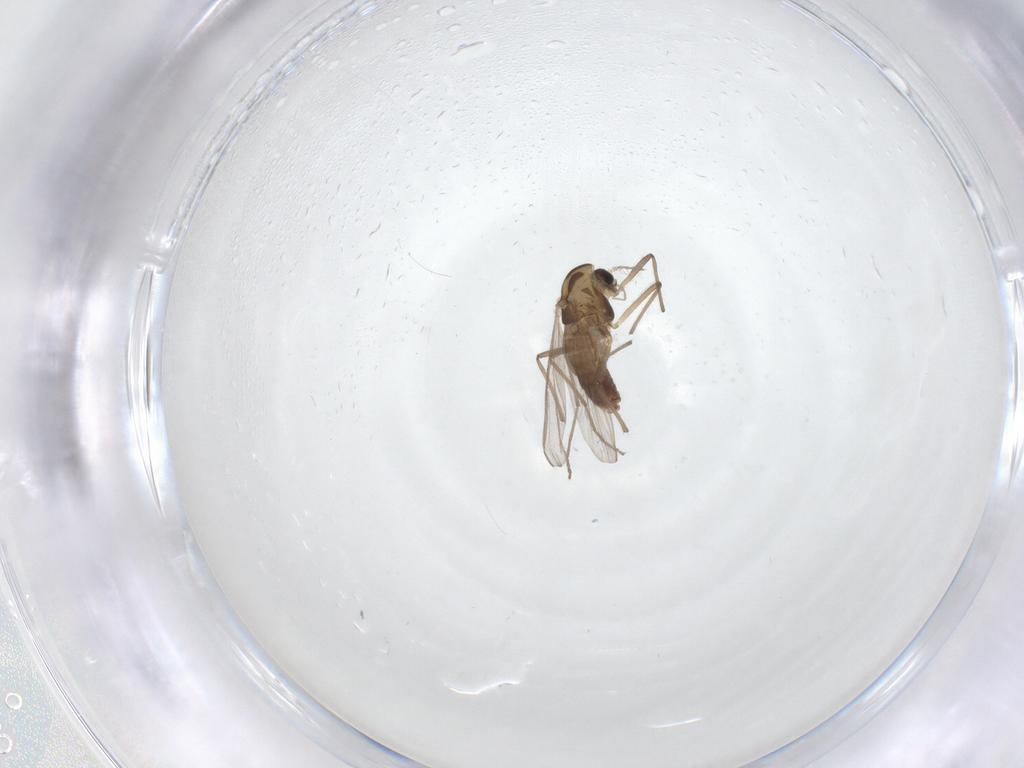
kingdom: Animalia
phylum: Arthropoda
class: Insecta
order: Diptera
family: Chironomidae
